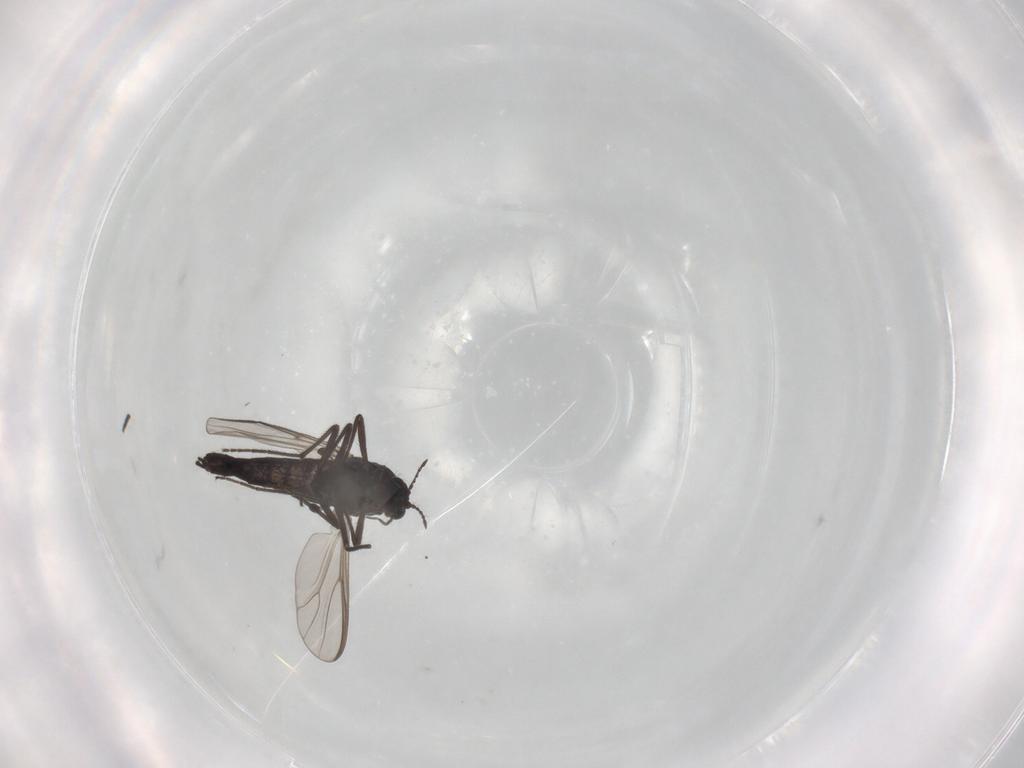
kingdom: Animalia
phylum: Arthropoda
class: Insecta
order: Diptera
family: Chironomidae
